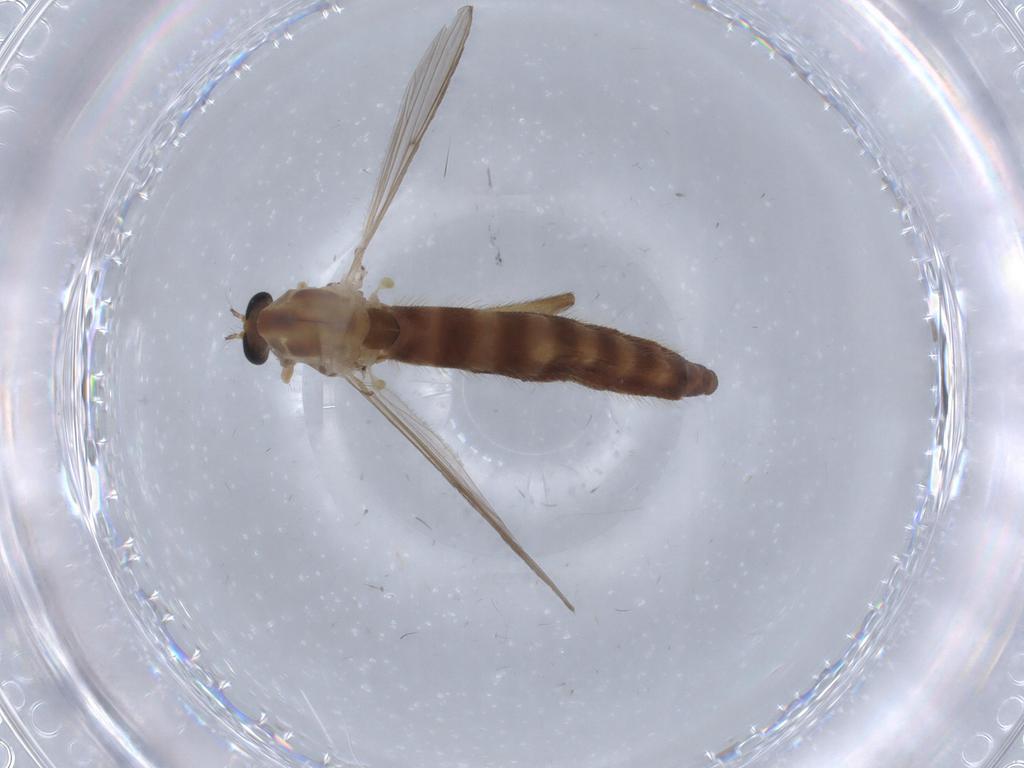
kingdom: Animalia
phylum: Arthropoda
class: Insecta
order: Diptera
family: Chironomidae
